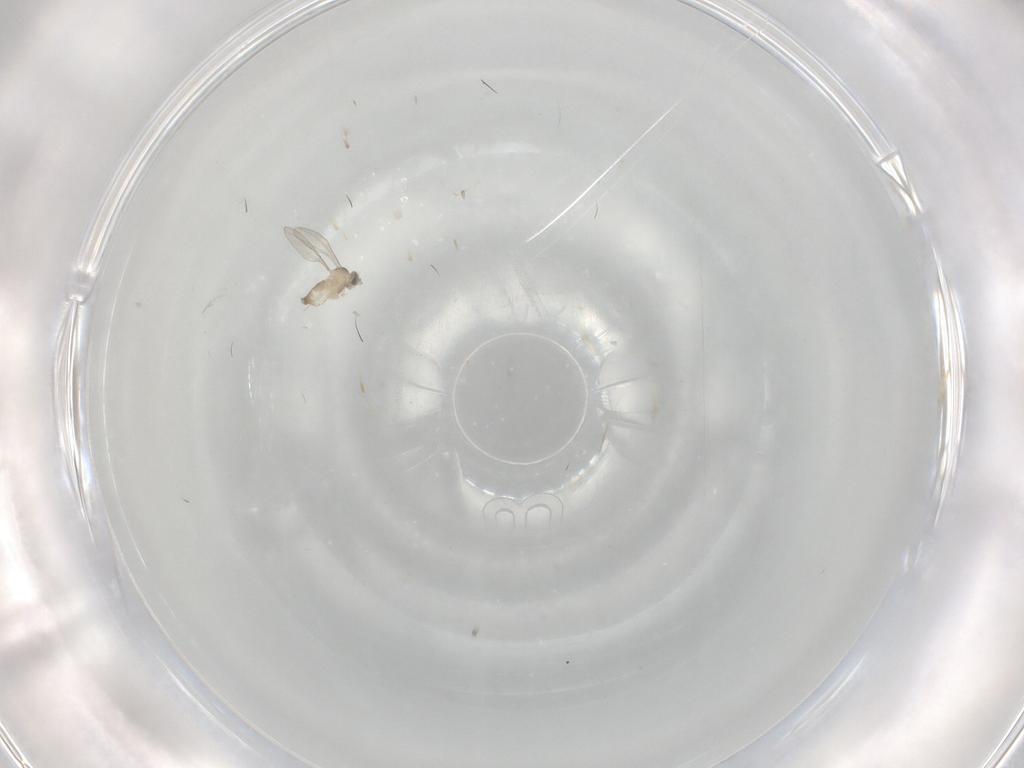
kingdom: Animalia
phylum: Arthropoda
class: Insecta
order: Diptera
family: Cecidomyiidae
